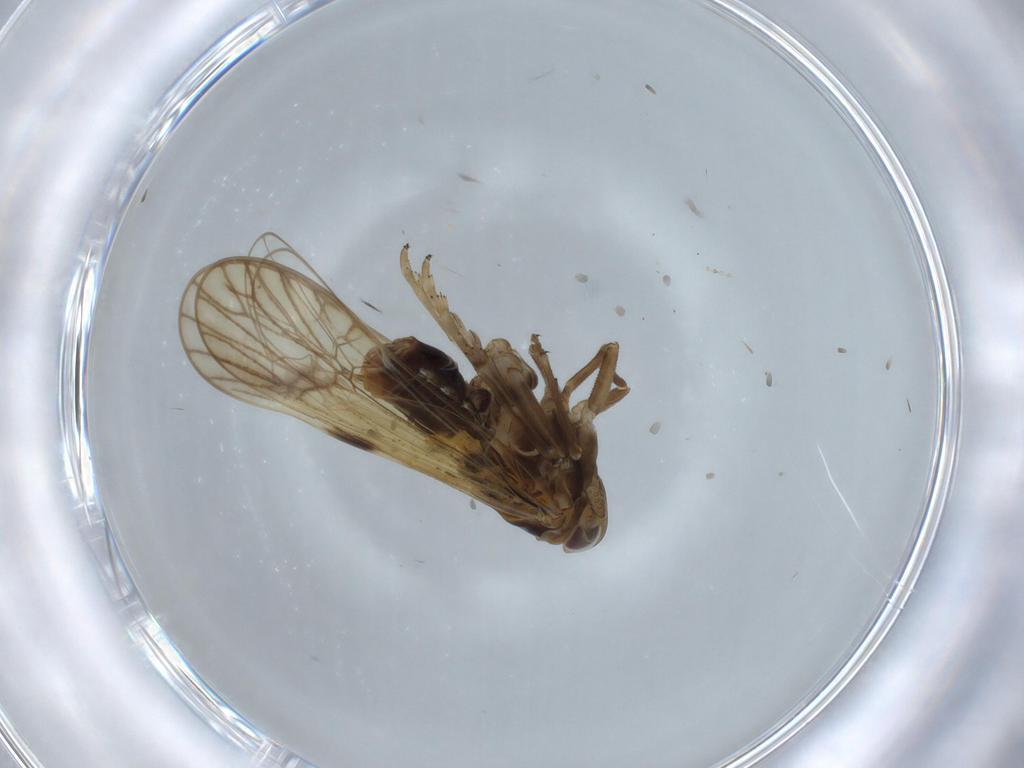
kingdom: Animalia
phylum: Arthropoda
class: Insecta
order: Hemiptera
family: Delphacidae
